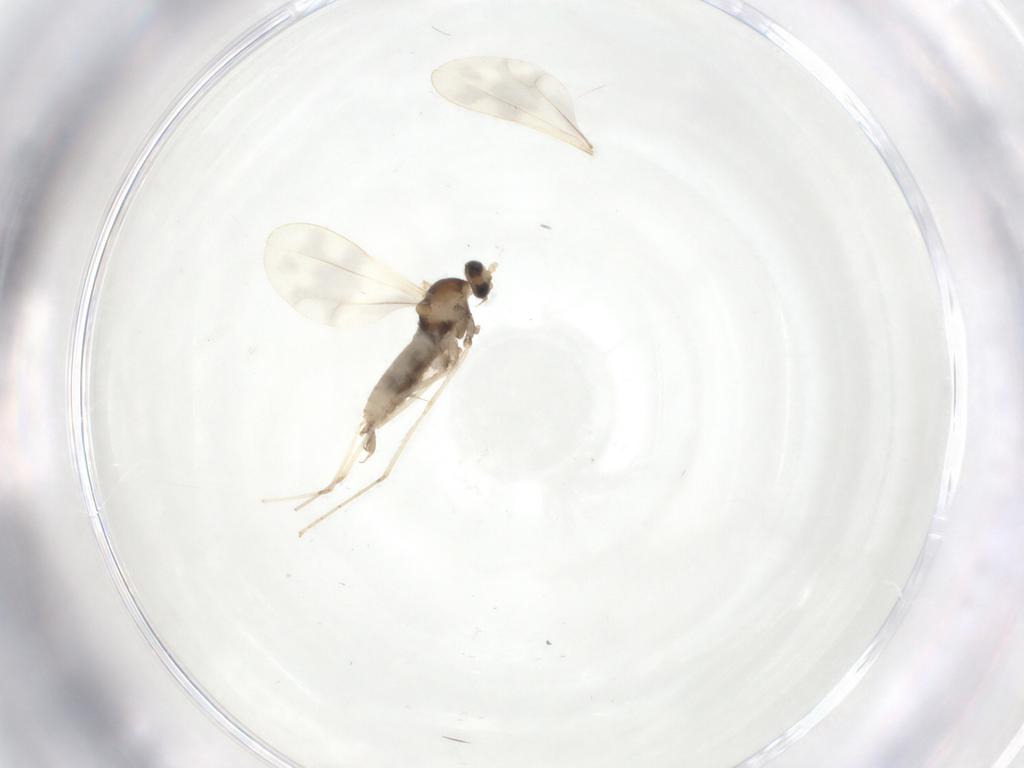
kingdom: Animalia
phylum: Arthropoda
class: Insecta
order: Diptera
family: Cecidomyiidae
